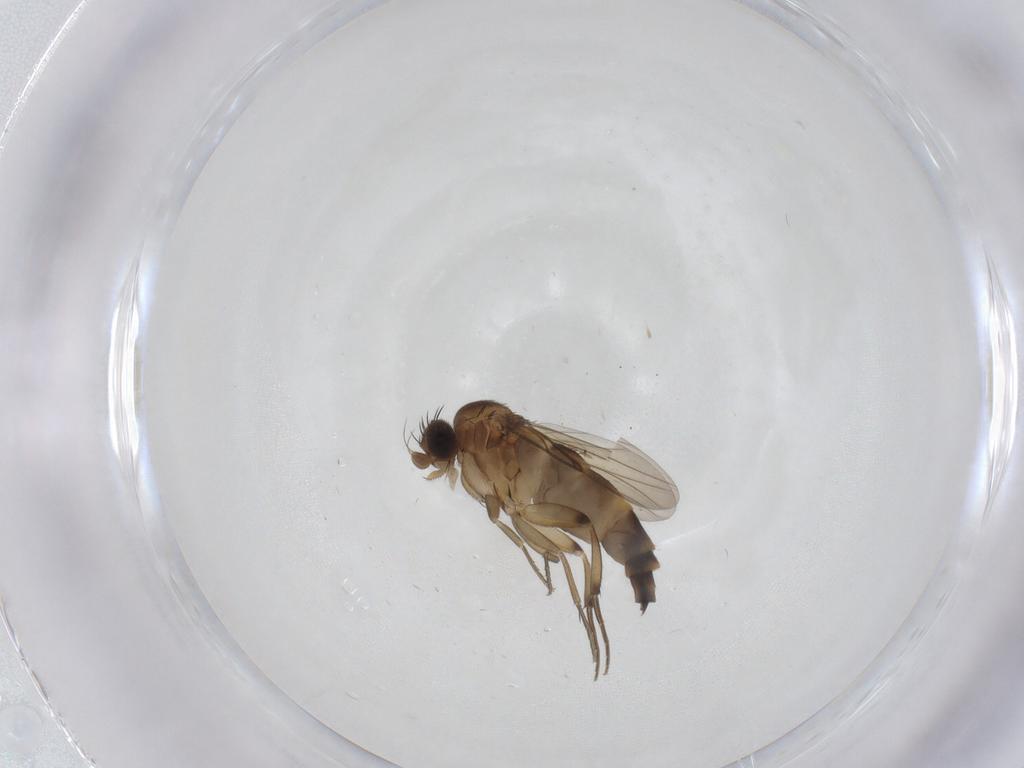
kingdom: Animalia
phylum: Arthropoda
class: Insecta
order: Diptera
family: Phoridae
